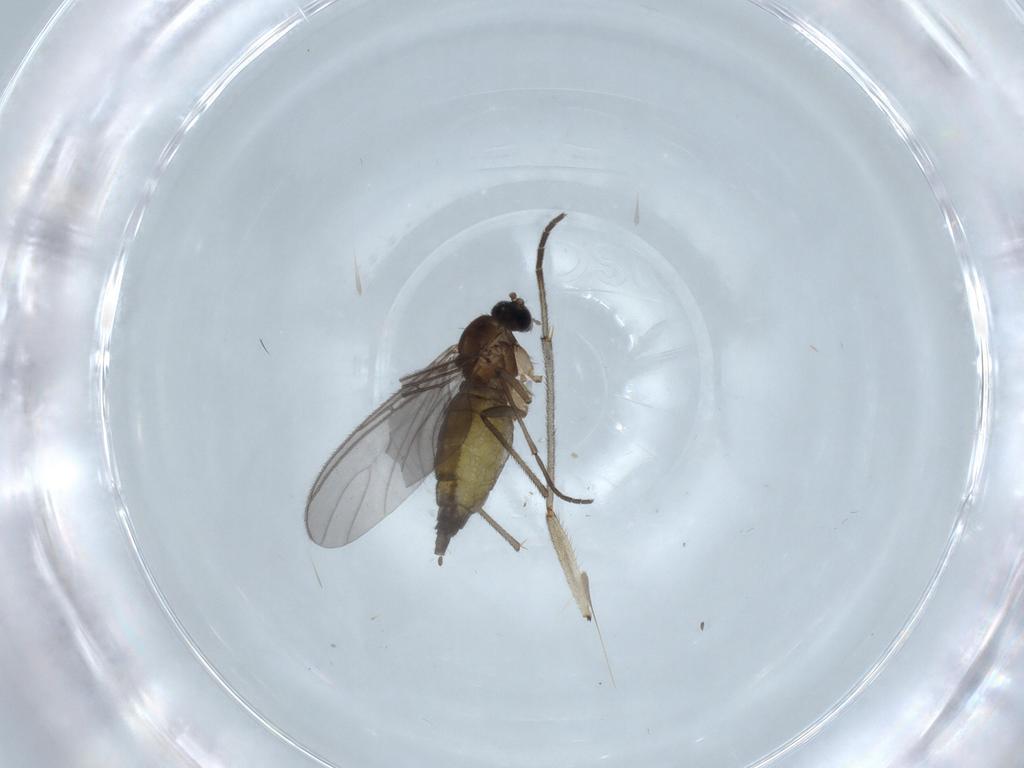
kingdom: Animalia
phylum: Arthropoda
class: Insecta
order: Diptera
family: Sciaridae
